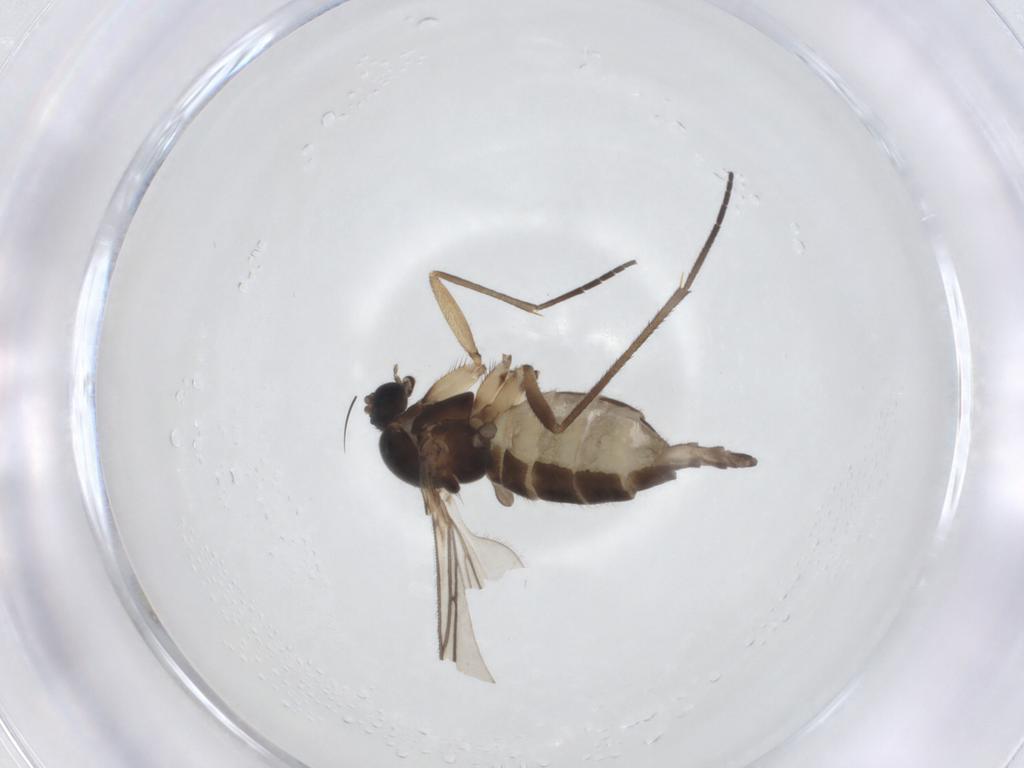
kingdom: Animalia
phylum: Arthropoda
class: Insecta
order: Diptera
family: Sciaridae
